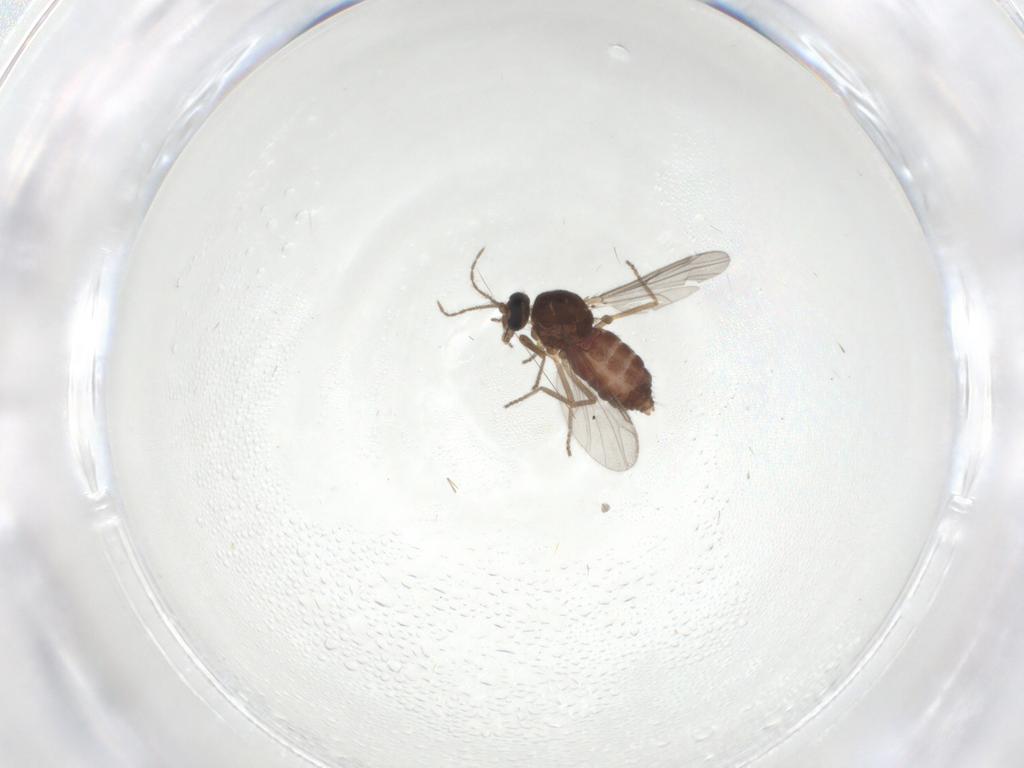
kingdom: Animalia
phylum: Arthropoda
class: Insecta
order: Diptera
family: Ceratopogonidae
